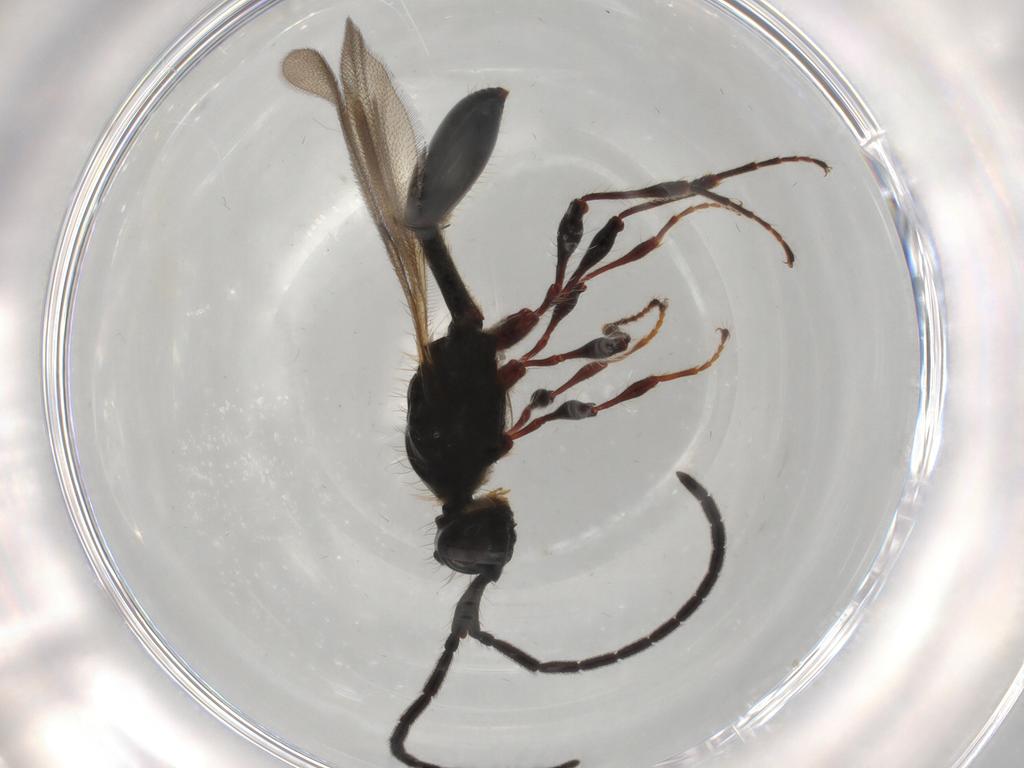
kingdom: Animalia
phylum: Arthropoda
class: Insecta
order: Hymenoptera
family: Diapriidae
